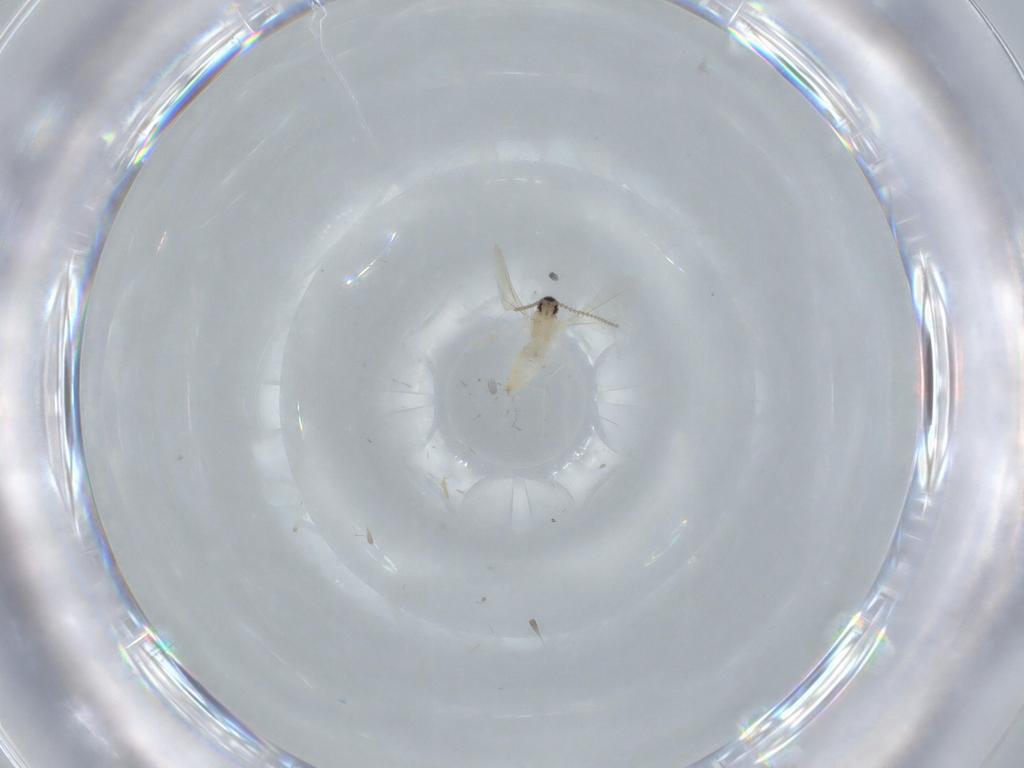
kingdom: Animalia
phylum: Arthropoda
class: Insecta
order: Diptera
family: Cecidomyiidae
